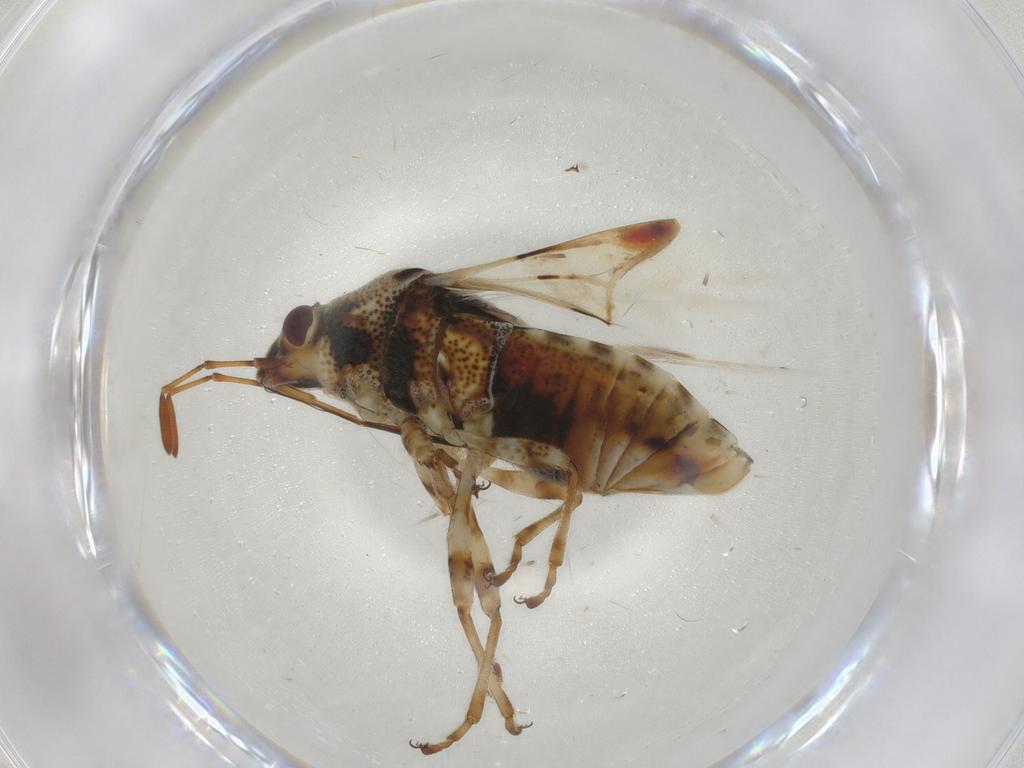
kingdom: Animalia
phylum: Arthropoda
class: Insecta
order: Hemiptera
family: Lygaeidae
